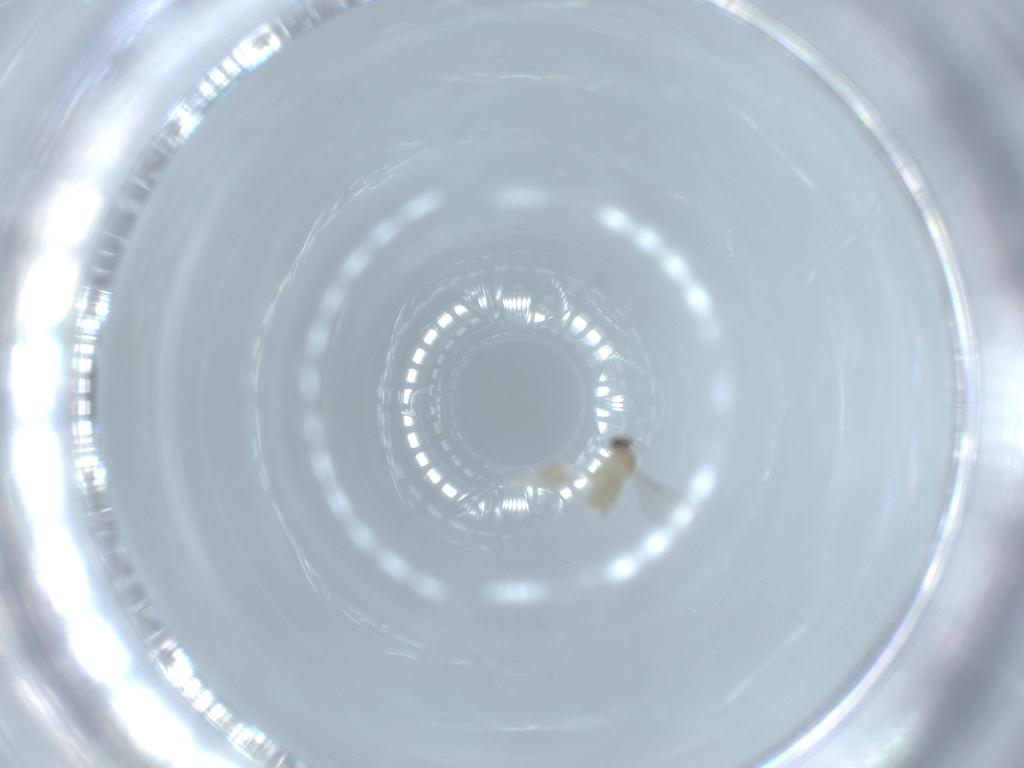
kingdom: Animalia
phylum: Arthropoda
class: Insecta
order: Diptera
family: Cecidomyiidae
